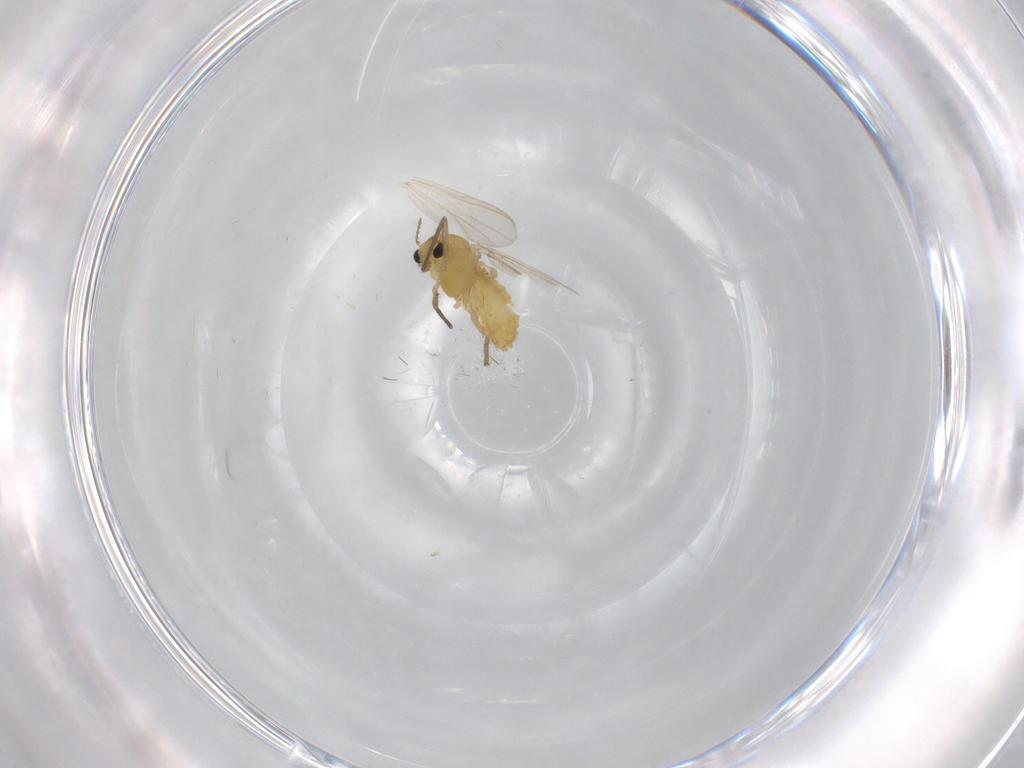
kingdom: Animalia
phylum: Arthropoda
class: Insecta
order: Diptera
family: Chironomidae
